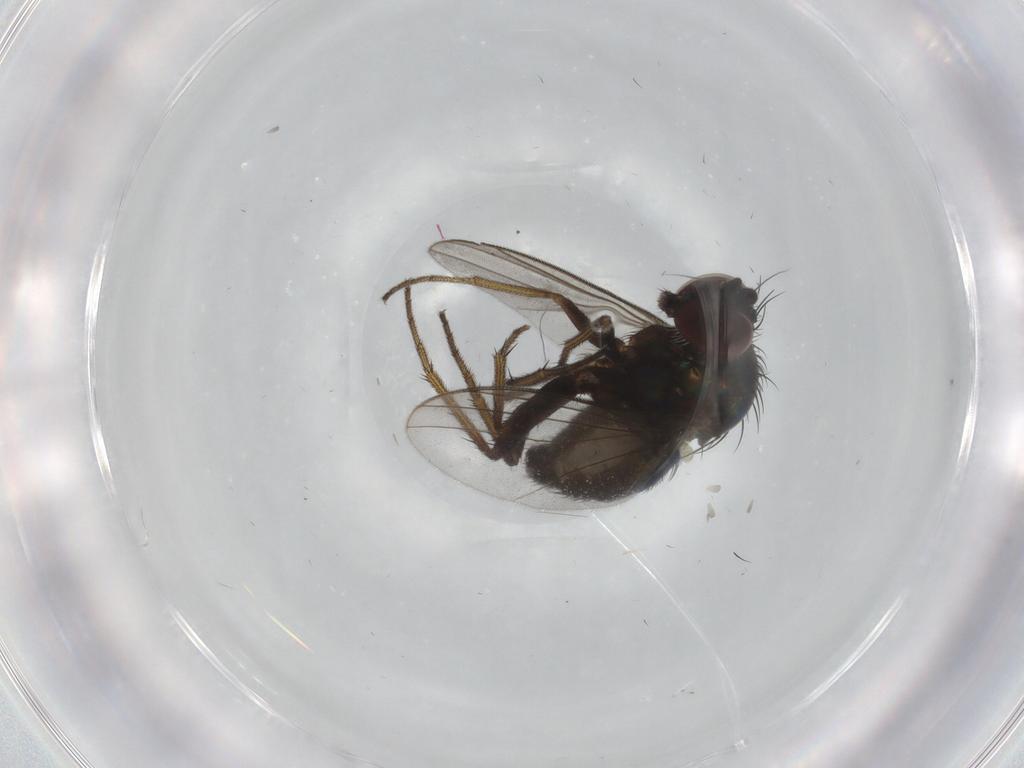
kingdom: Animalia
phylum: Arthropoda
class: Insecta
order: Diptera
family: Dolichopodidae
